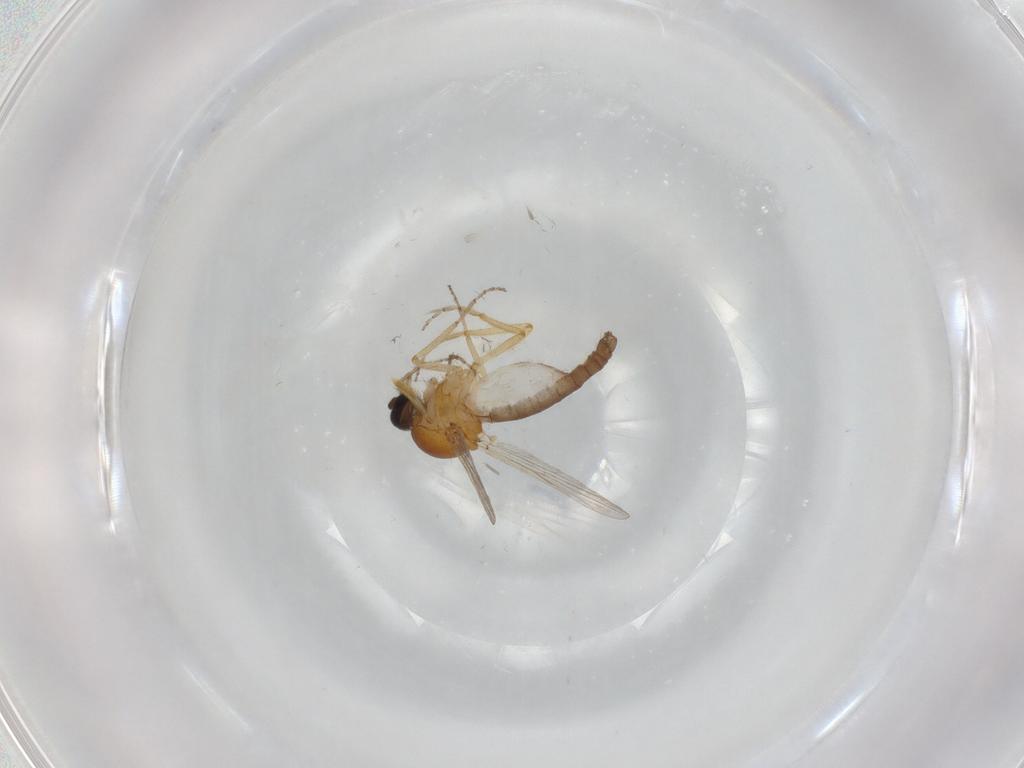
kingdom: Animalia
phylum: Arthropoda
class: Insecta
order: Diptera
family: Ceratopogonidae
